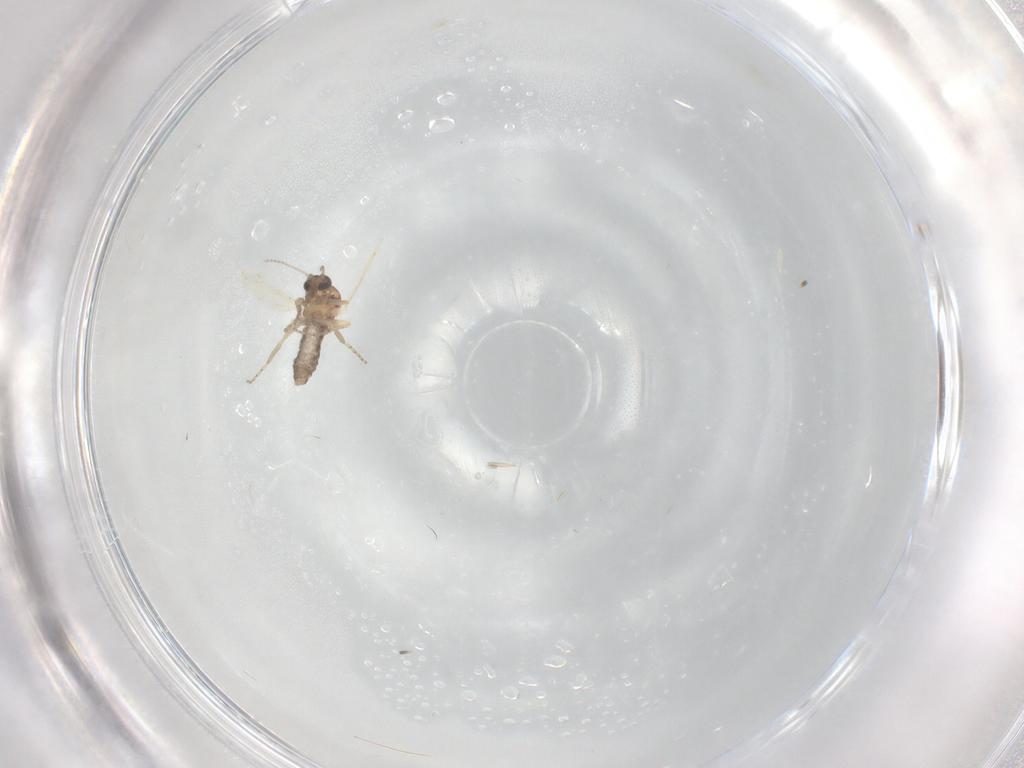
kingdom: Animalia
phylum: Arthropoda
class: Insecta
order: Diptera
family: Ceratopogonidae
